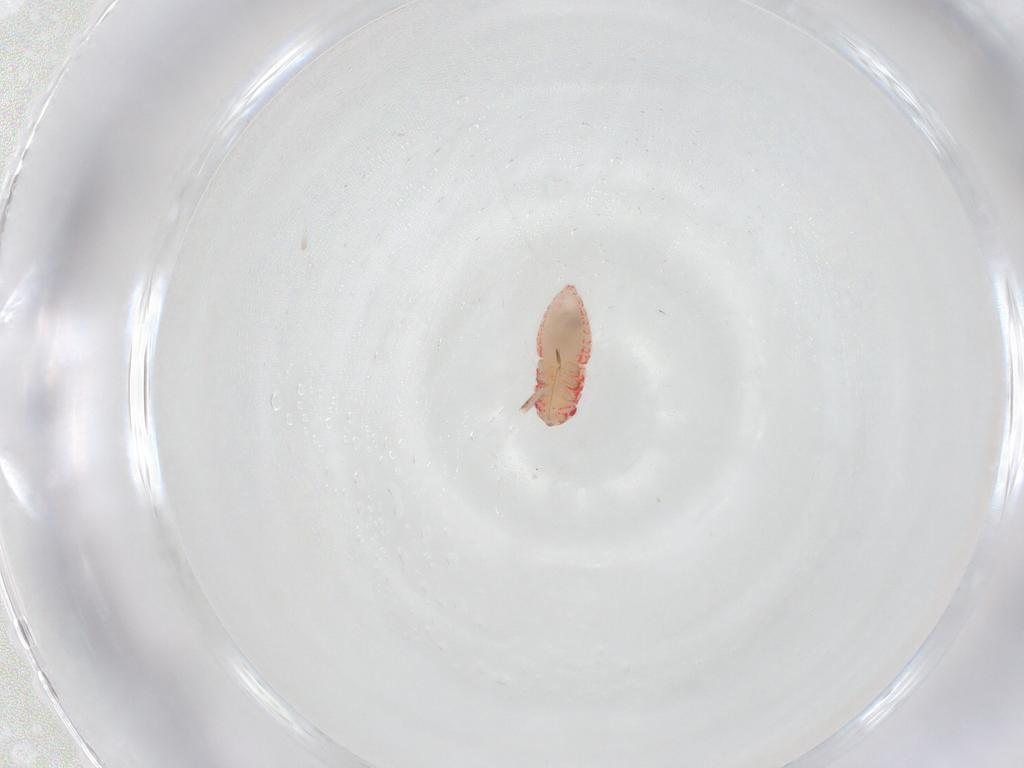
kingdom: Animalia
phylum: Arthropoda
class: Insecta
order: Hemiptera
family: Miridae
